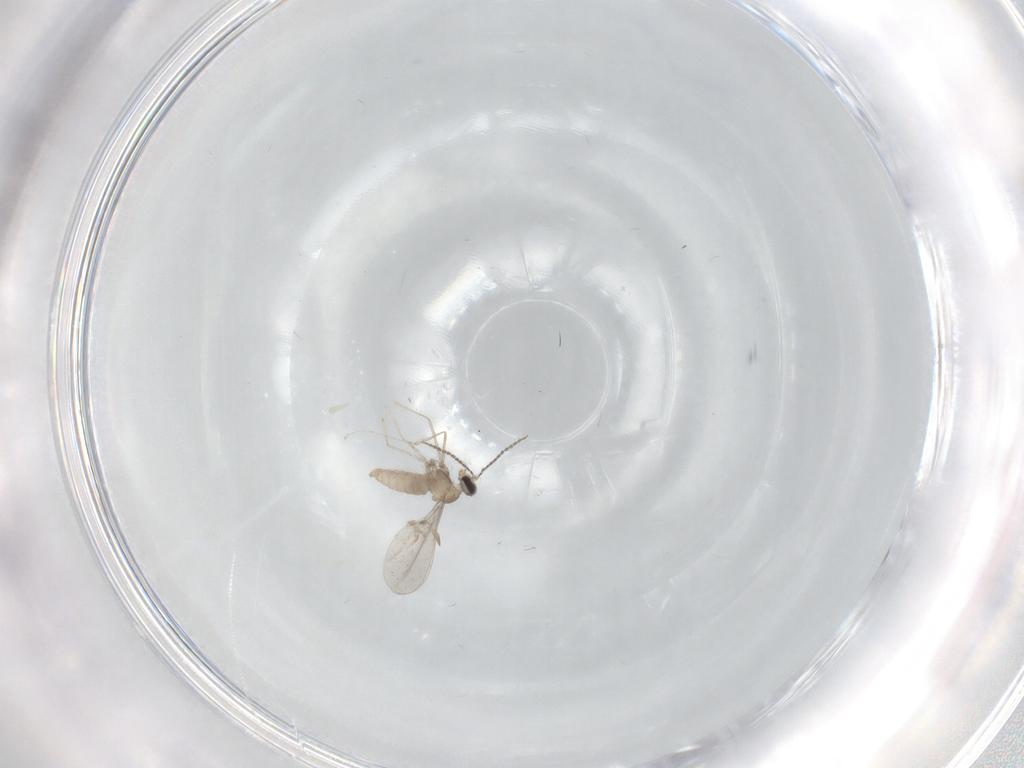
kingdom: Animalia
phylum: Arthropoda
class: Insecta
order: Diptera
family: Cecidomyiidae
